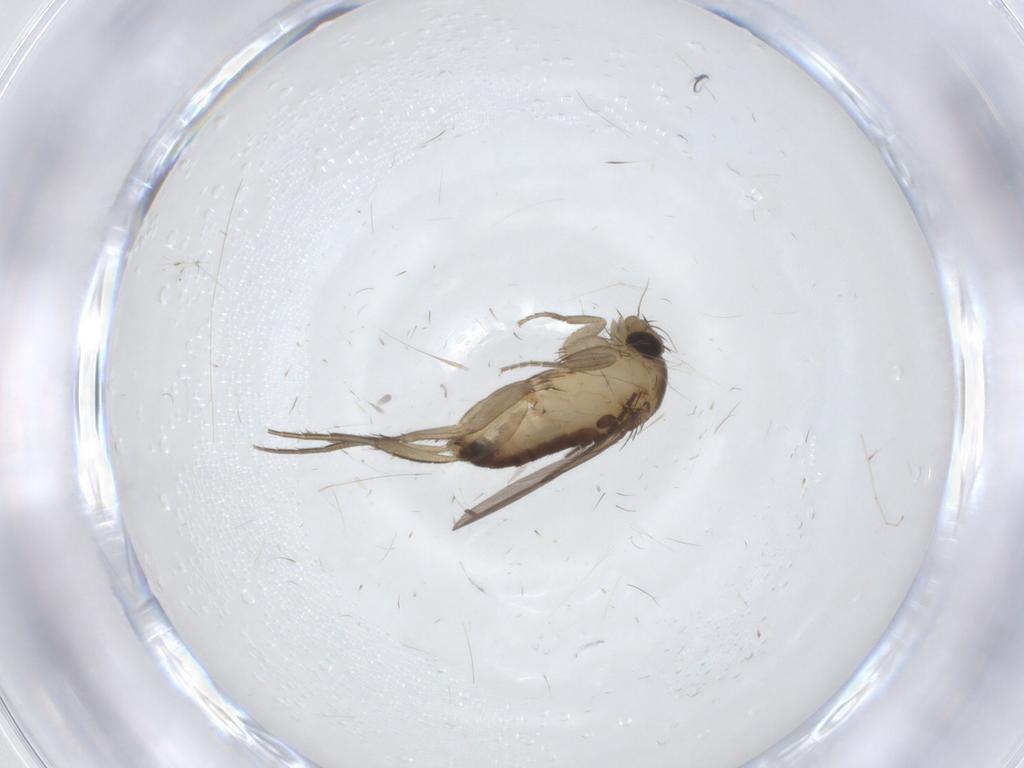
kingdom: Animalia
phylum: Arthropoda
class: Insecta
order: Diptera
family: Phoridae
